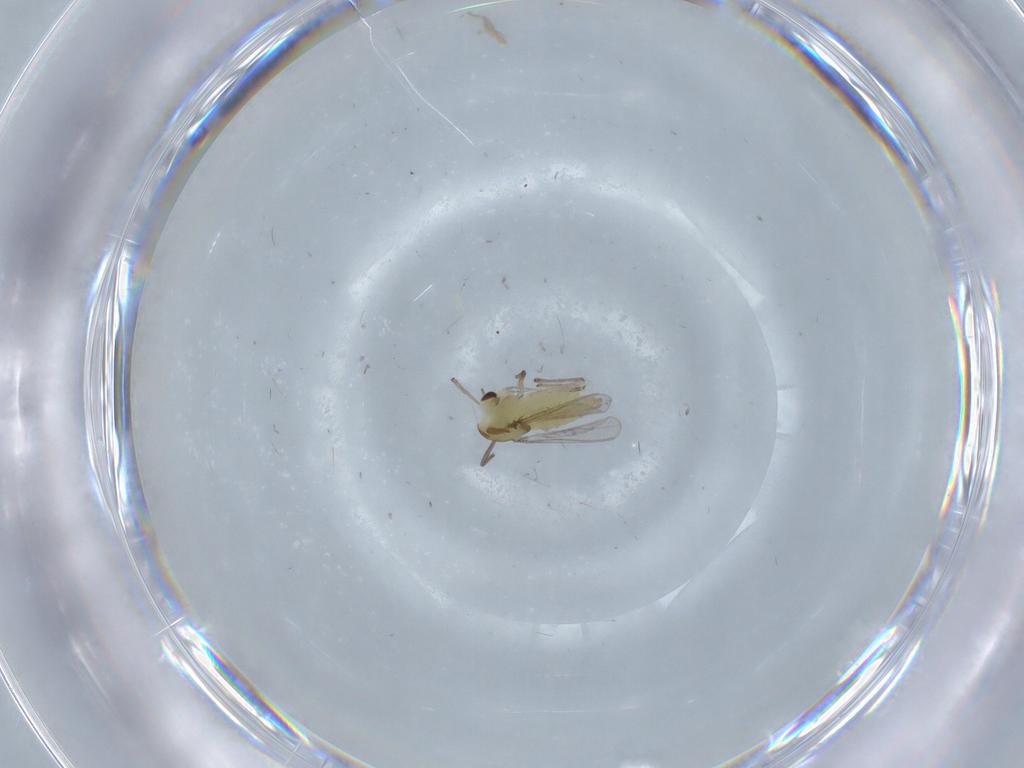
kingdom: Animalia
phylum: Arthropoda
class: Insecta
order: Diptera
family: Chironomidae
